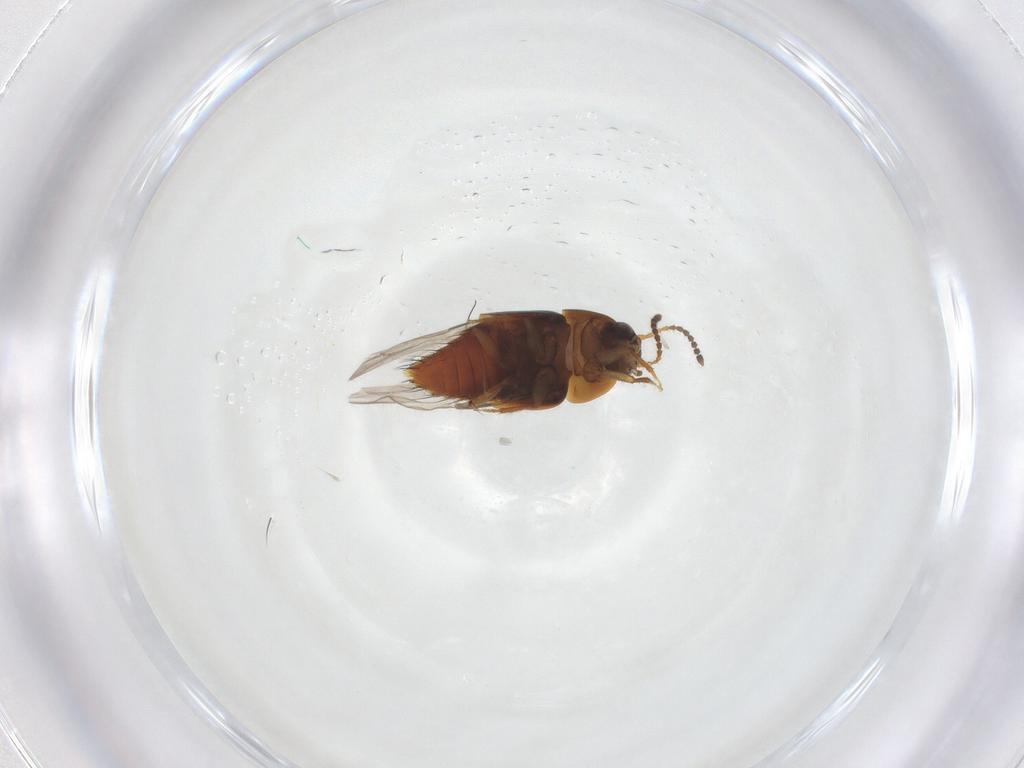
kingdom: Animalia
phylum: Arthropoda
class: Insecta
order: Coleoptera
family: Staphylinidae
